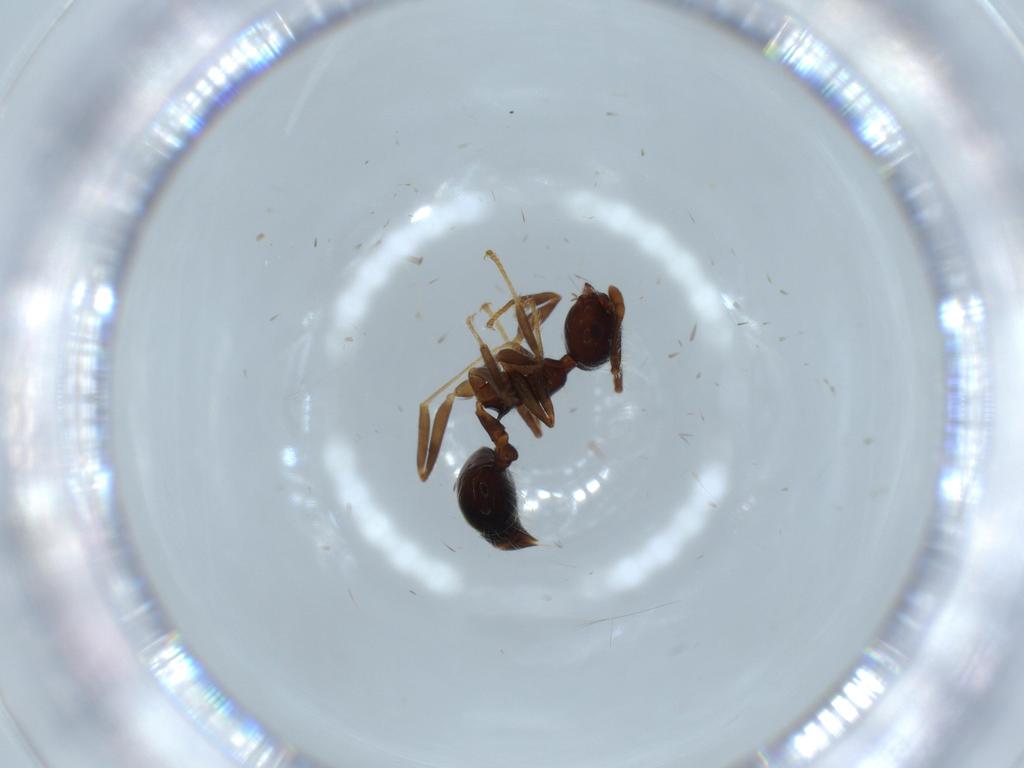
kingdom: Animalia
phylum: Arthropoda
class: Insecta
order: Hymenoptera
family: Formicidae
